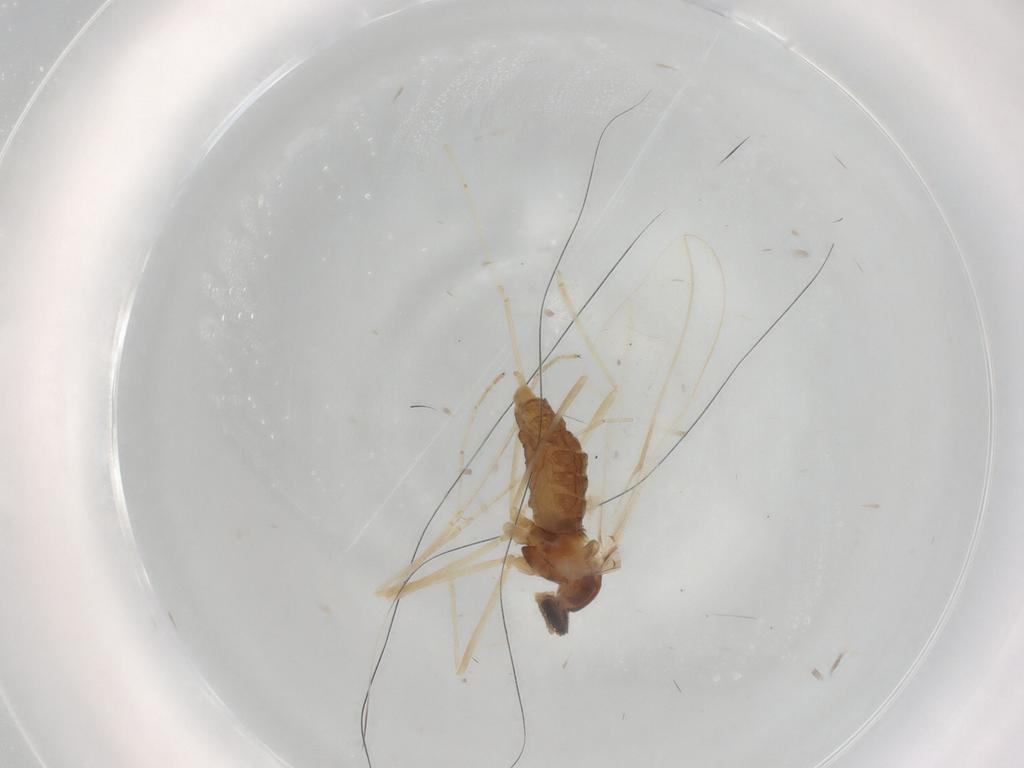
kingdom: Animalia
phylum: Arthropoda
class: Insecta
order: Diptera
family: Cecidomyiidae
